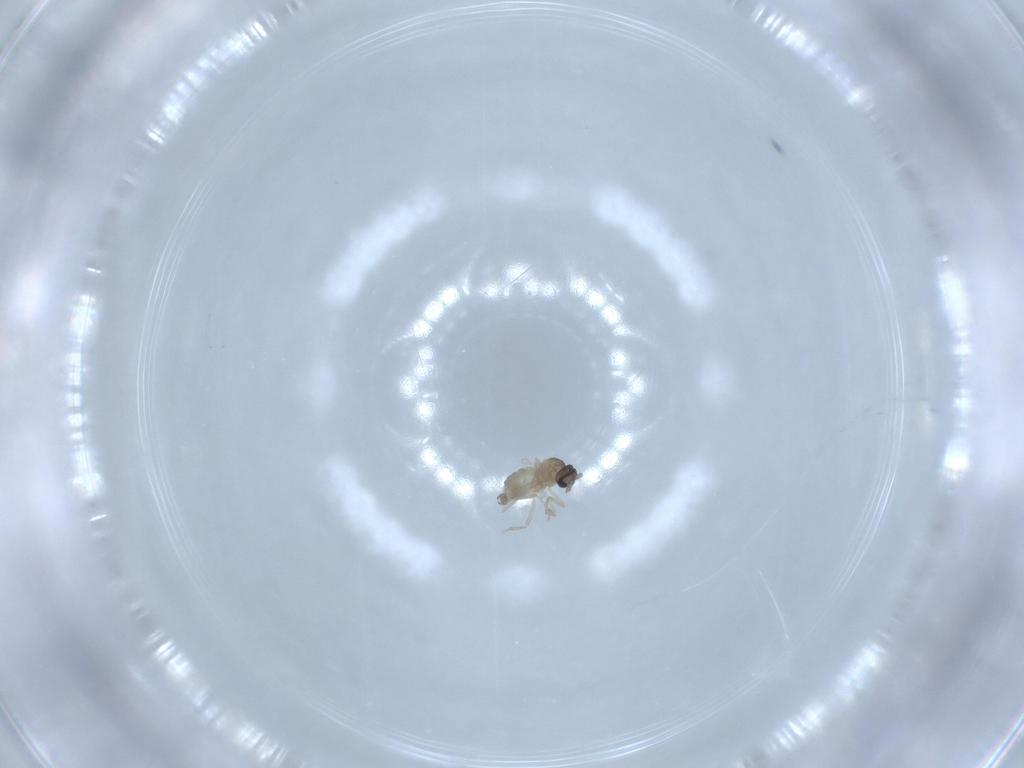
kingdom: Animalia
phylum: Arthropoda
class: Insecta
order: Diptera
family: Cecidomyiidae
